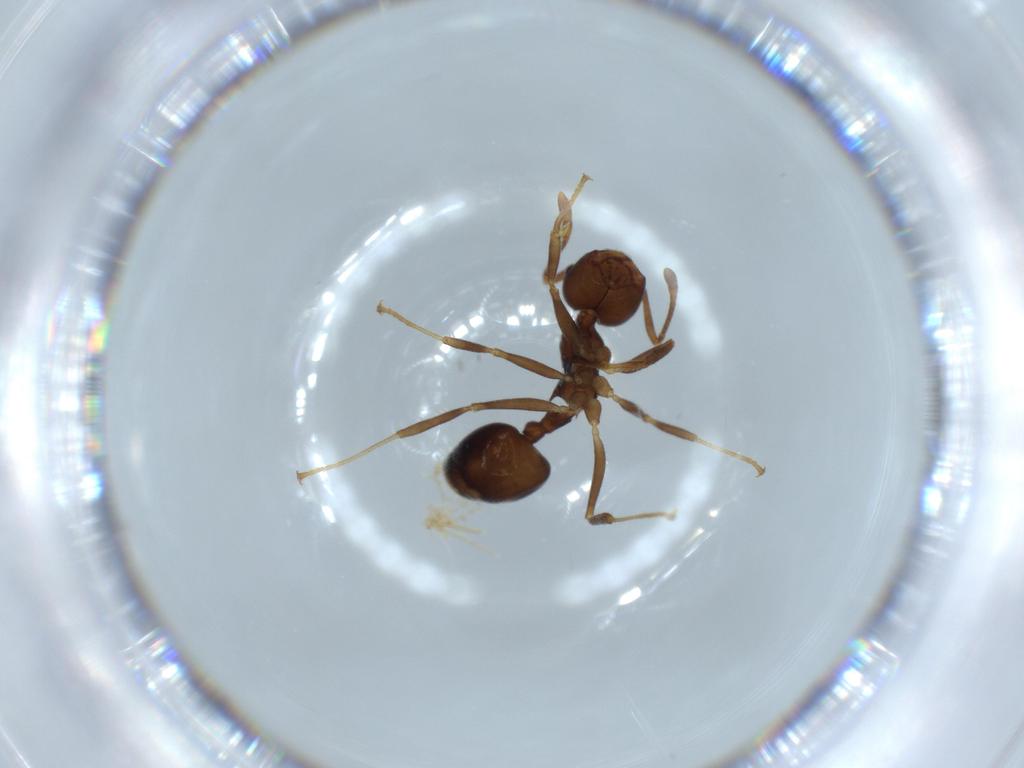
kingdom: Animalia
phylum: Arthropoda
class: Insecta
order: Hymenoptera
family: Formicidae
